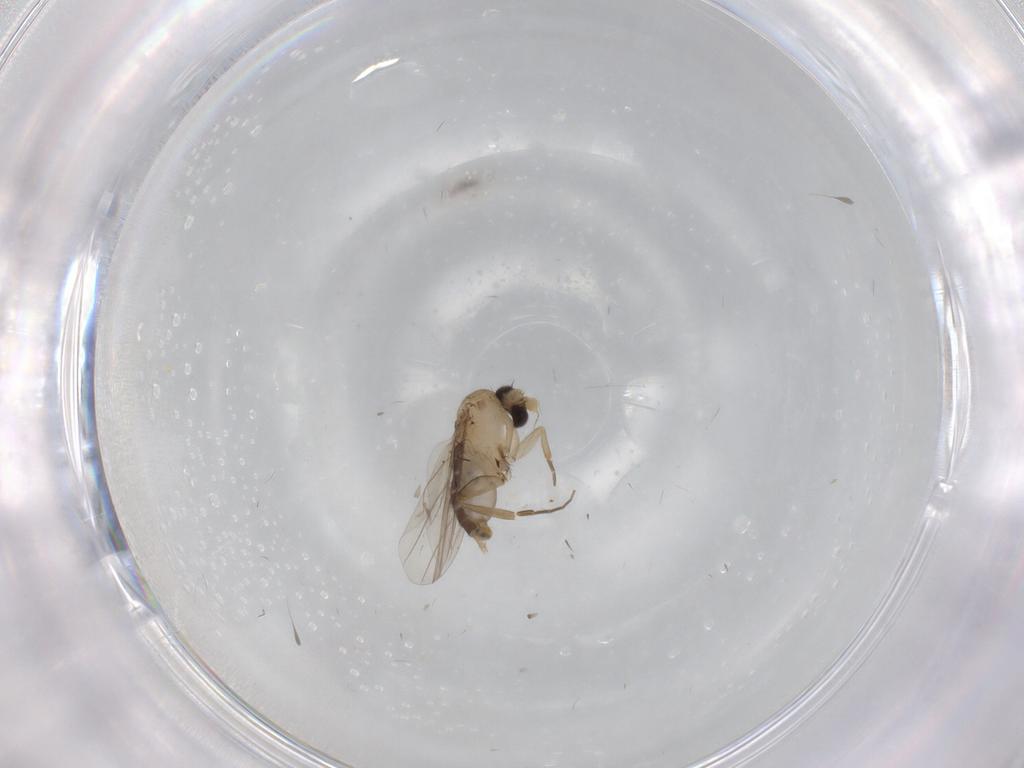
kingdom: Animalia
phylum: Arthropoda
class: Insecta
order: Diptera
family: Phoridae
